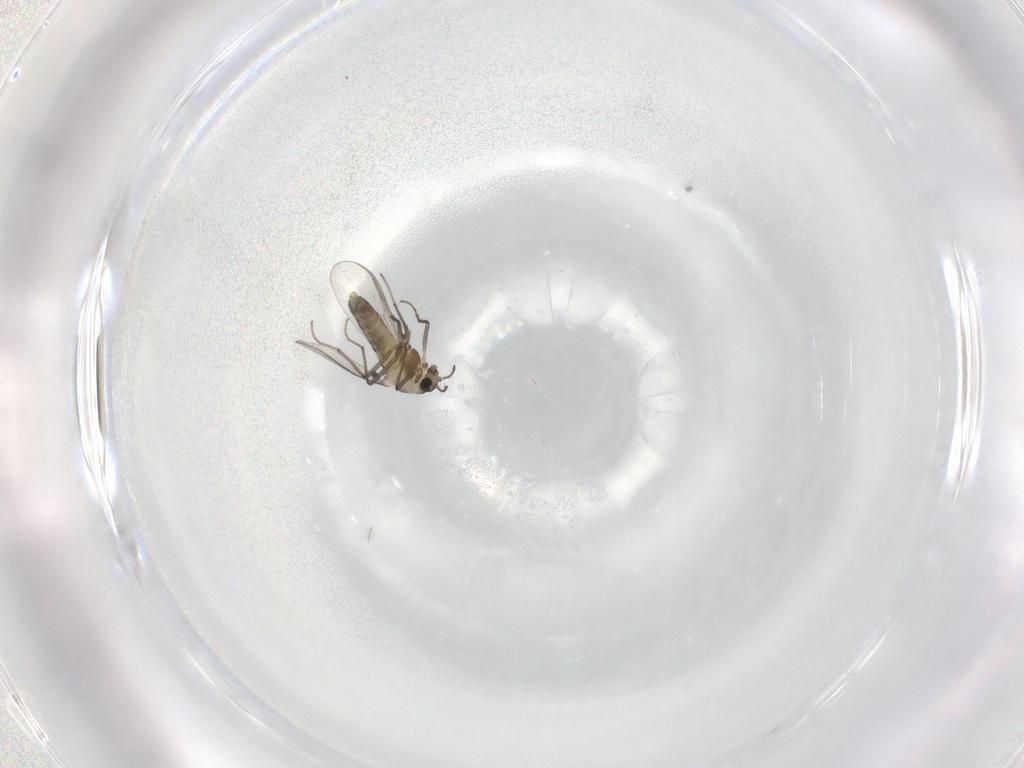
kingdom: Animalia
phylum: Arthropoda
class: Insecta
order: Diptera
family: Chironomidae
